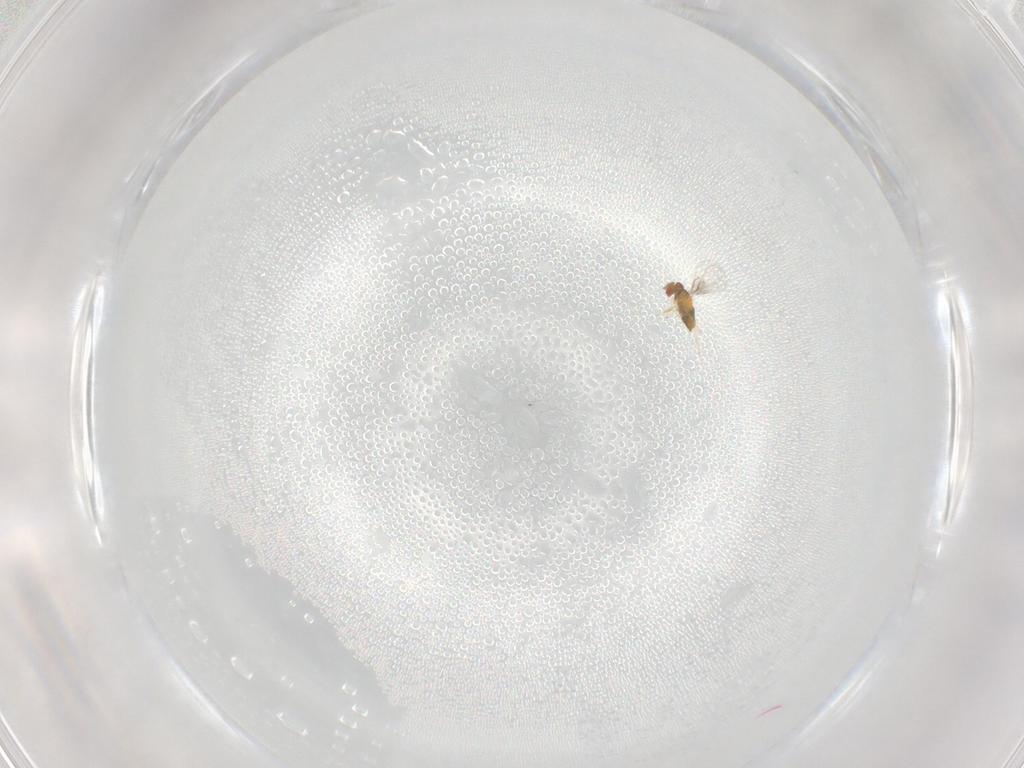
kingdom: Animalia
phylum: Arthropoda
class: Insecta
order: Hymenoptera
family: Trichogrammatidae
